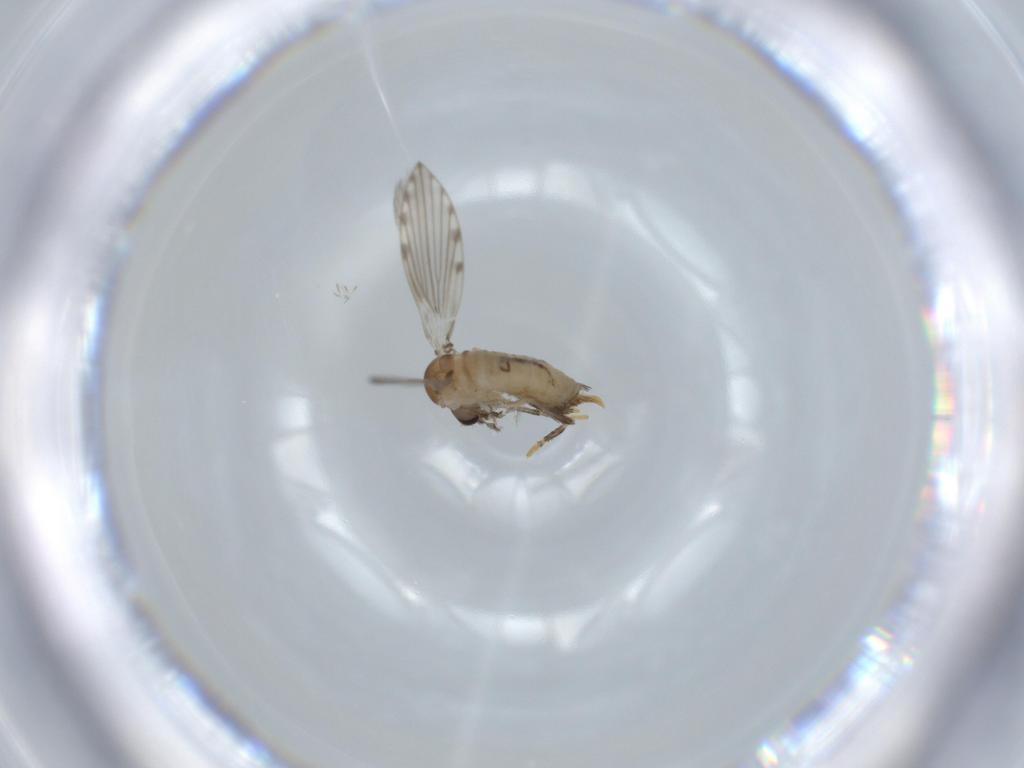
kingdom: Animalia
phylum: Arthropoda
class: Insecta
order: Diptera
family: Psychodidae
